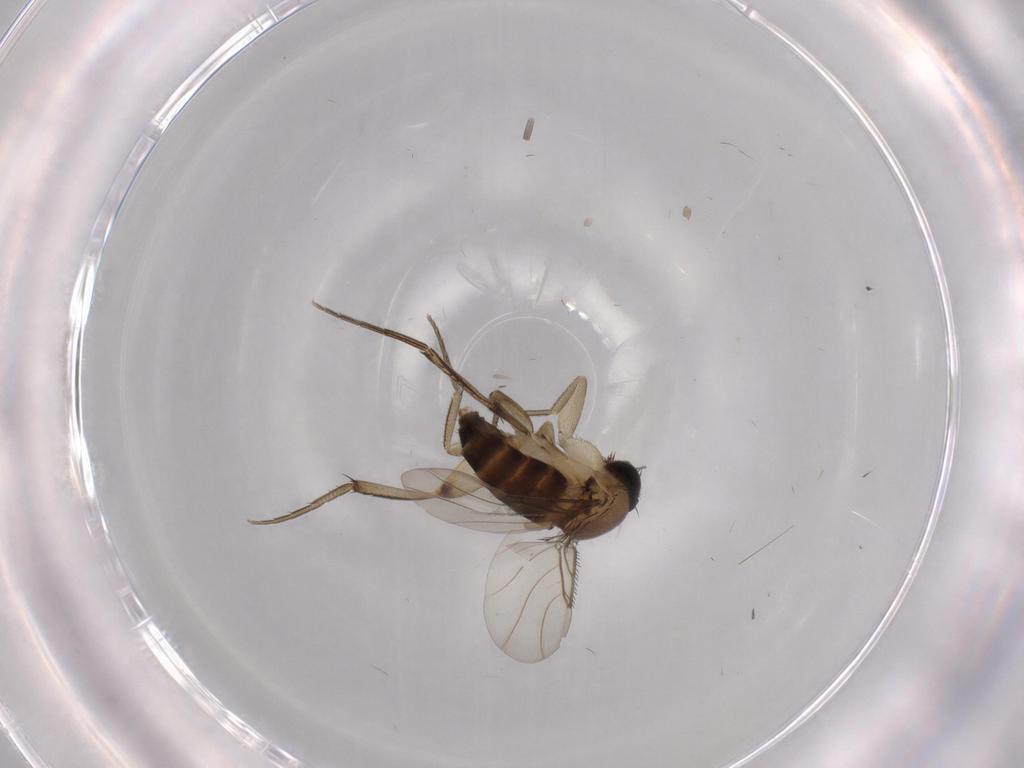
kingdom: Animalia
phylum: Arthropoda
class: Insecta
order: Diptera
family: Phoridae
